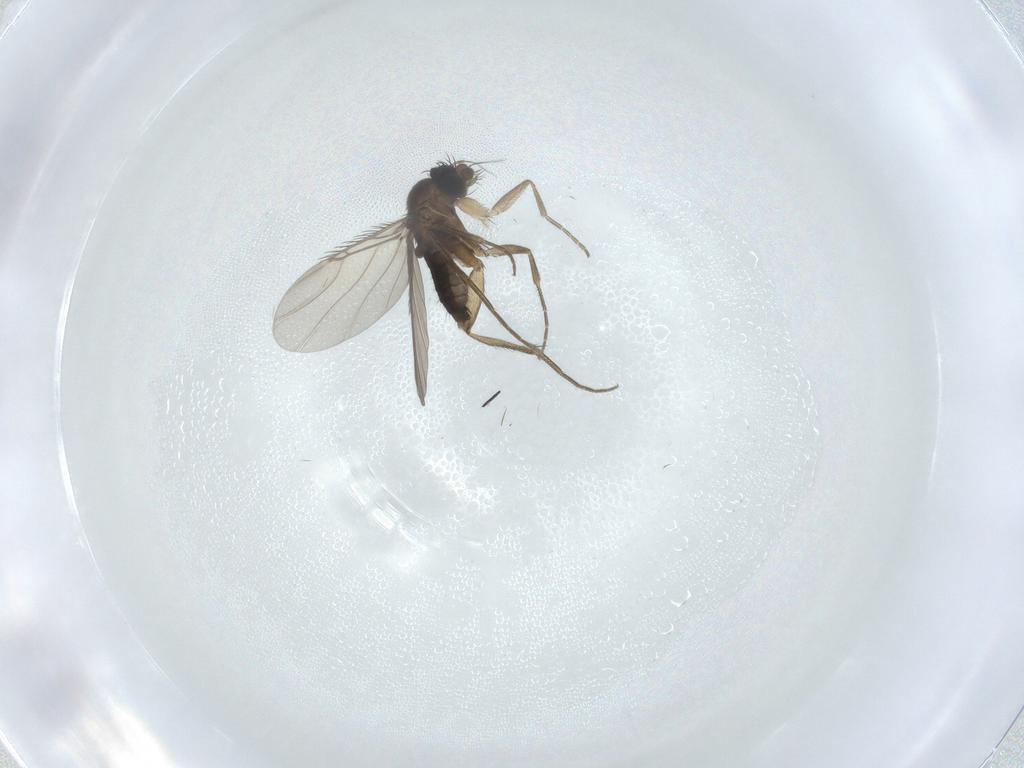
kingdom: Animalia
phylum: Arthropoda
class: Insecta
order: Diptera
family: Phoridae
